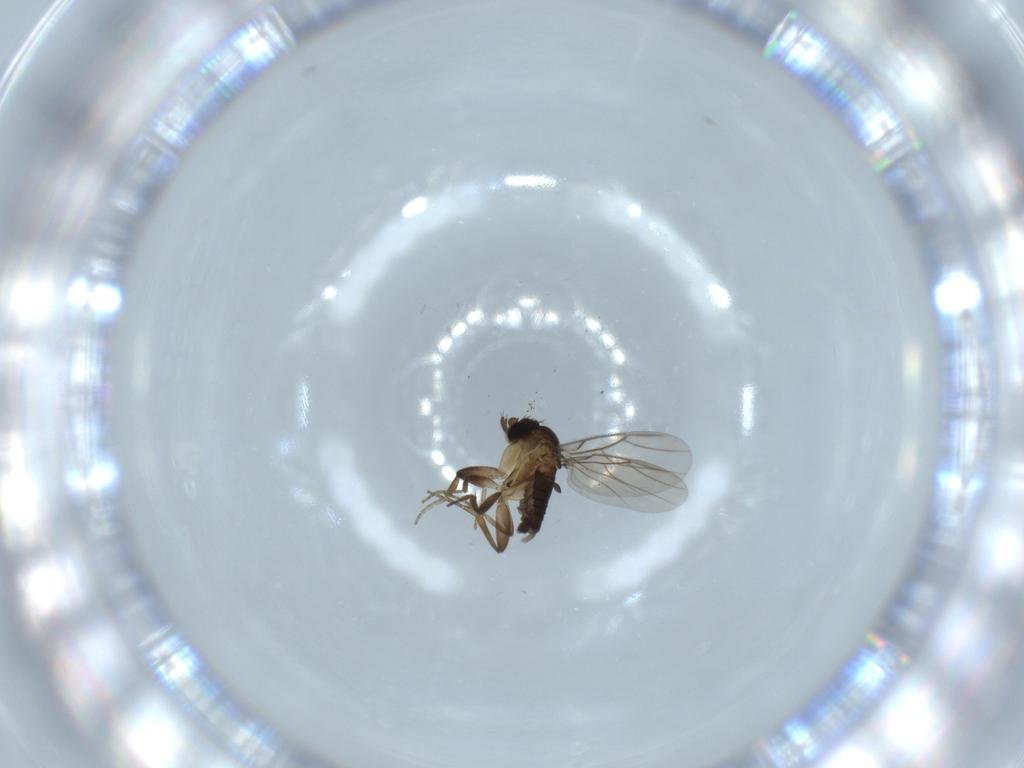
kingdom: Animalia
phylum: Arthropoda
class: Insecta
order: Diptera
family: Phoridae
